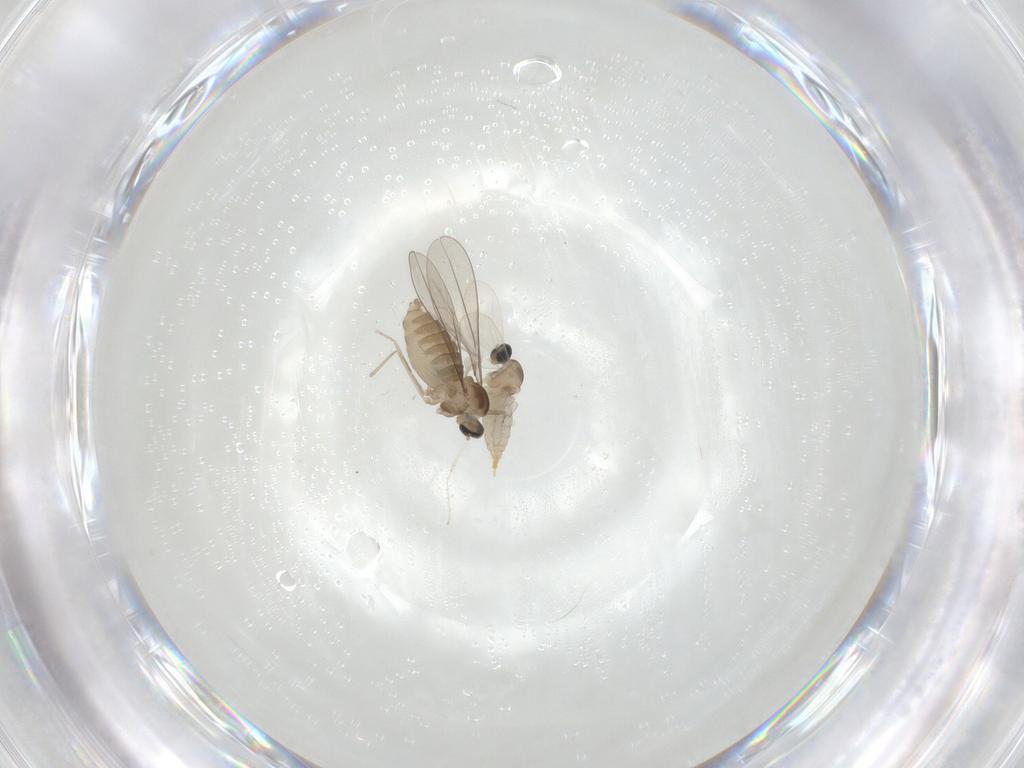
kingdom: Animalia
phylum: Arthropoda
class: Insecta
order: Diptera
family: Cecidomyiidae
